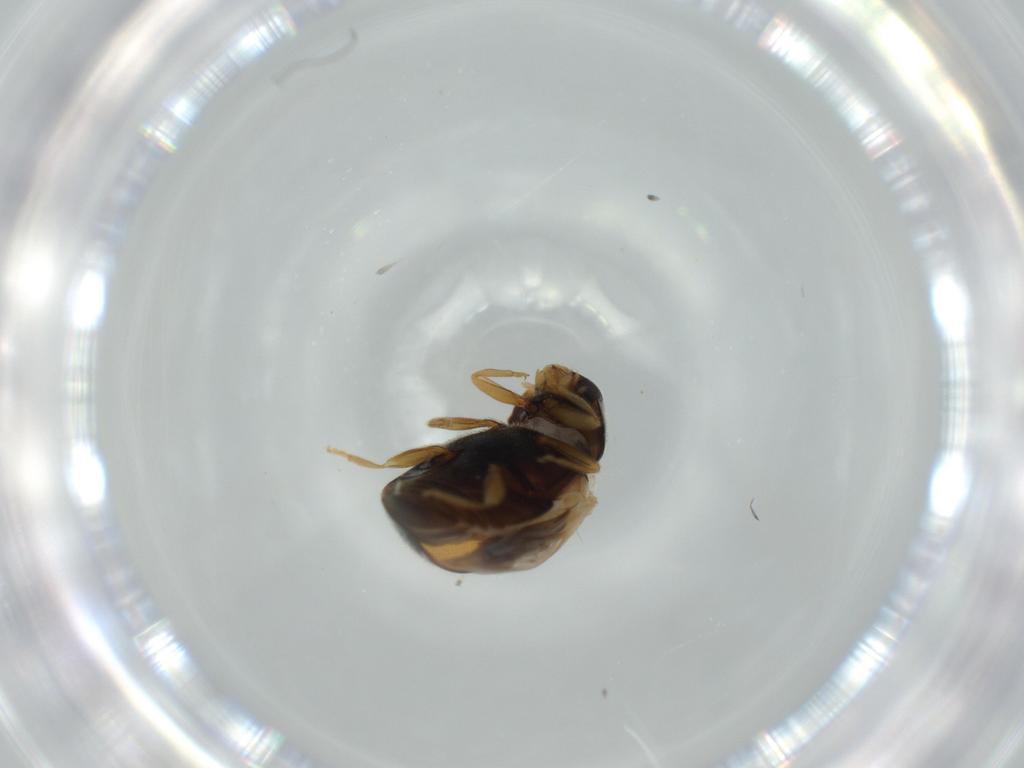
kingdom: Animalia
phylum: Arthropoda
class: Insecta
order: Coleoptera
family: Coccinellidae
